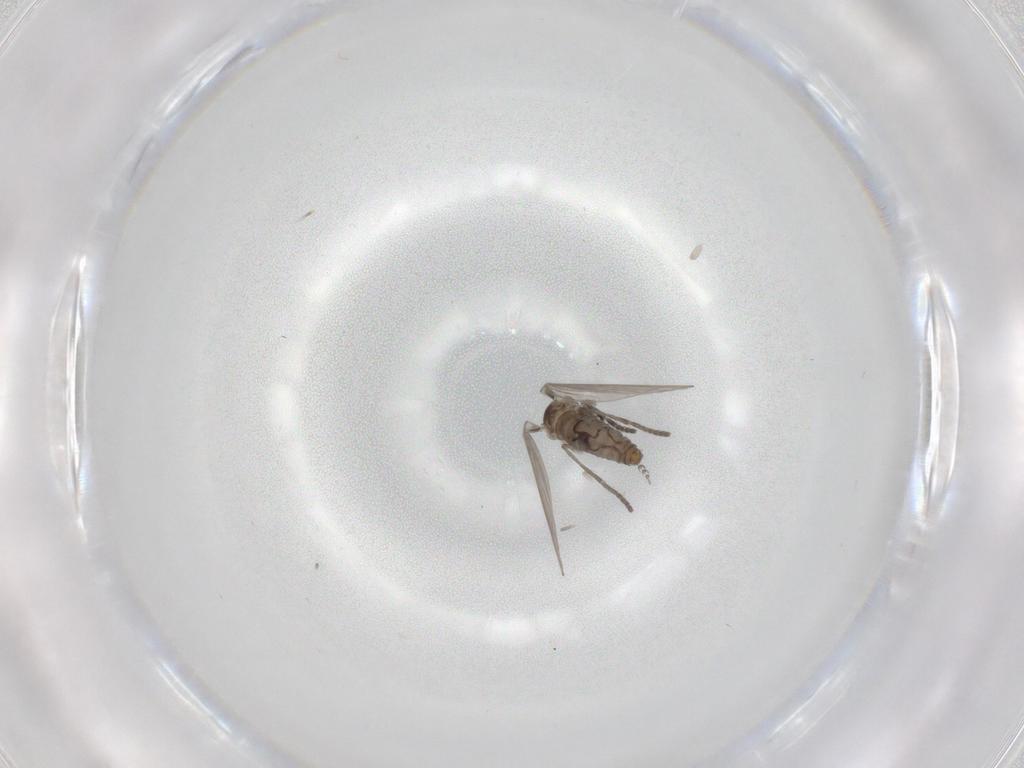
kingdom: Animalia
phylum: Arthropoda
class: Insecta
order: Diptera
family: Psychodidae
